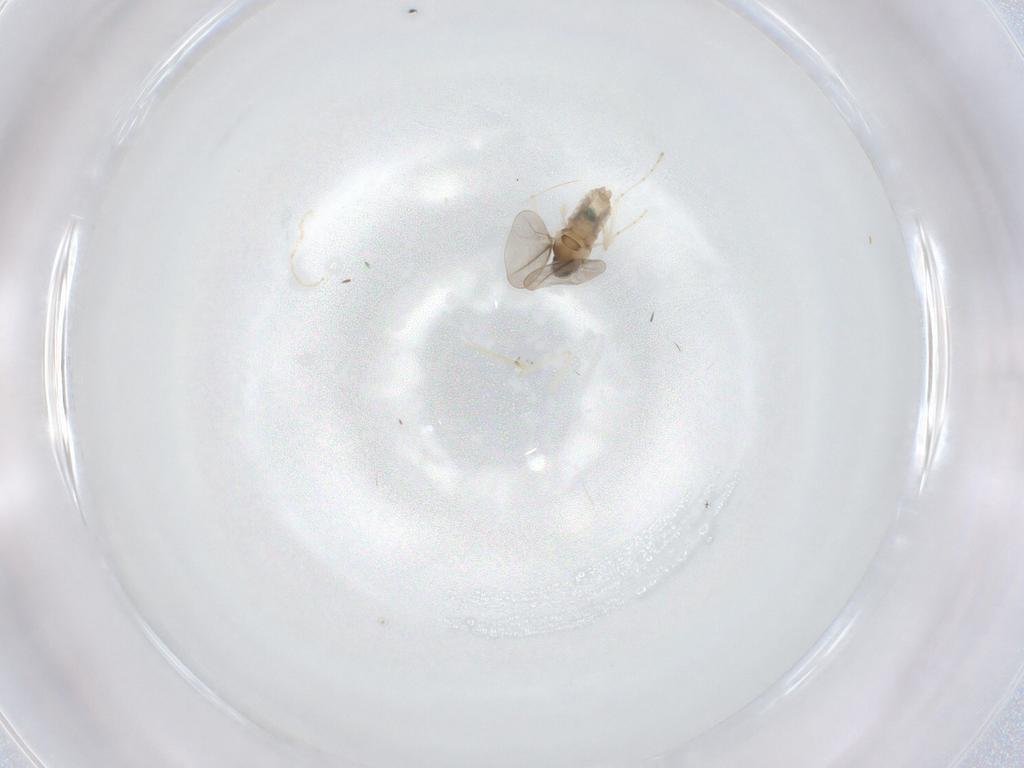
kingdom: Animalia
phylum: Arthropoda
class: Insecta
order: Diptera
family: Cecidomyiidae
